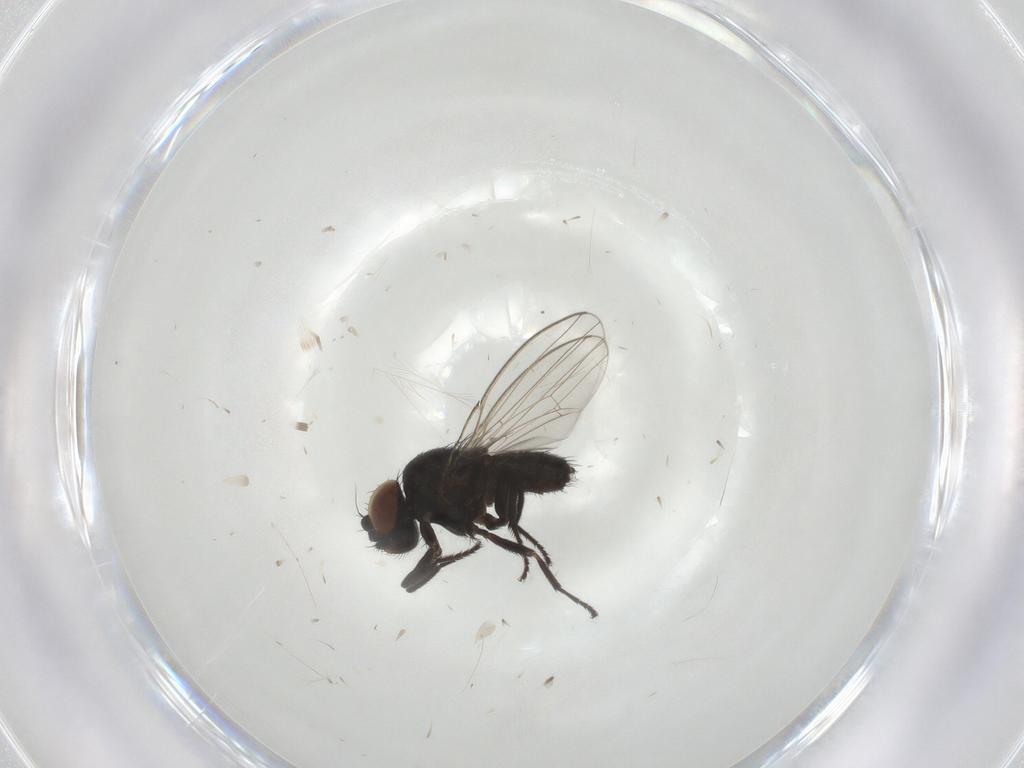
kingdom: Animalia
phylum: Arthropoda
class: Insecta
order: Diptera
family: Milichiidae
